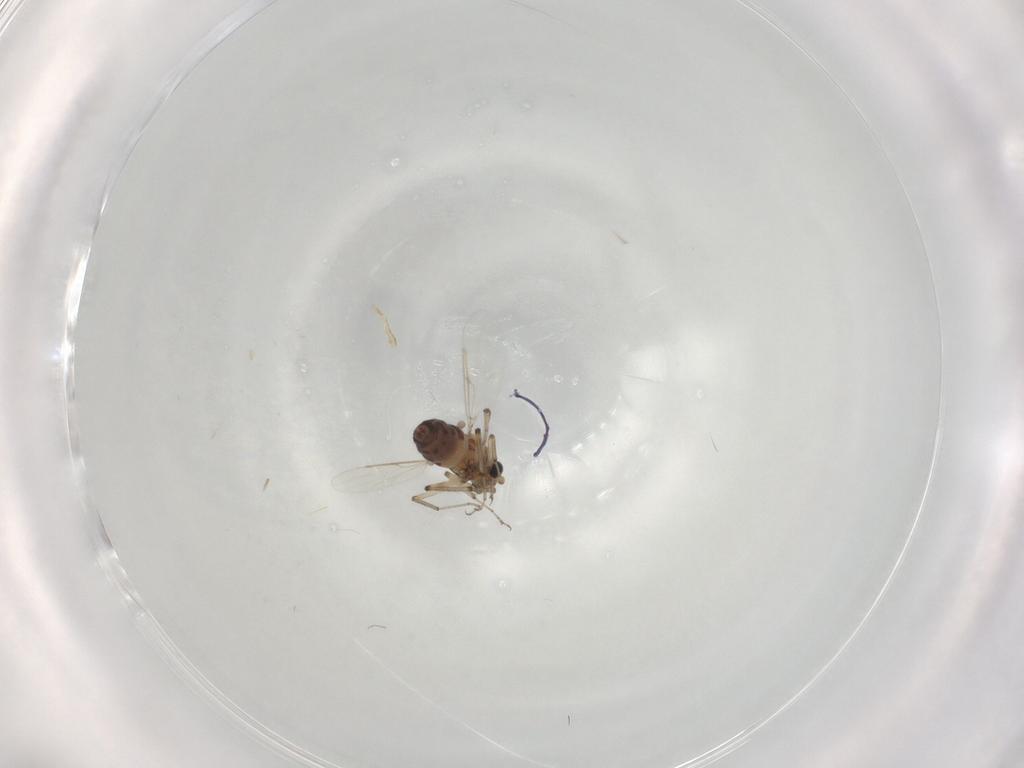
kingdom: Animalia
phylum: Arthropoda
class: Insecta
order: Diptera
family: Ceratopogonidae
